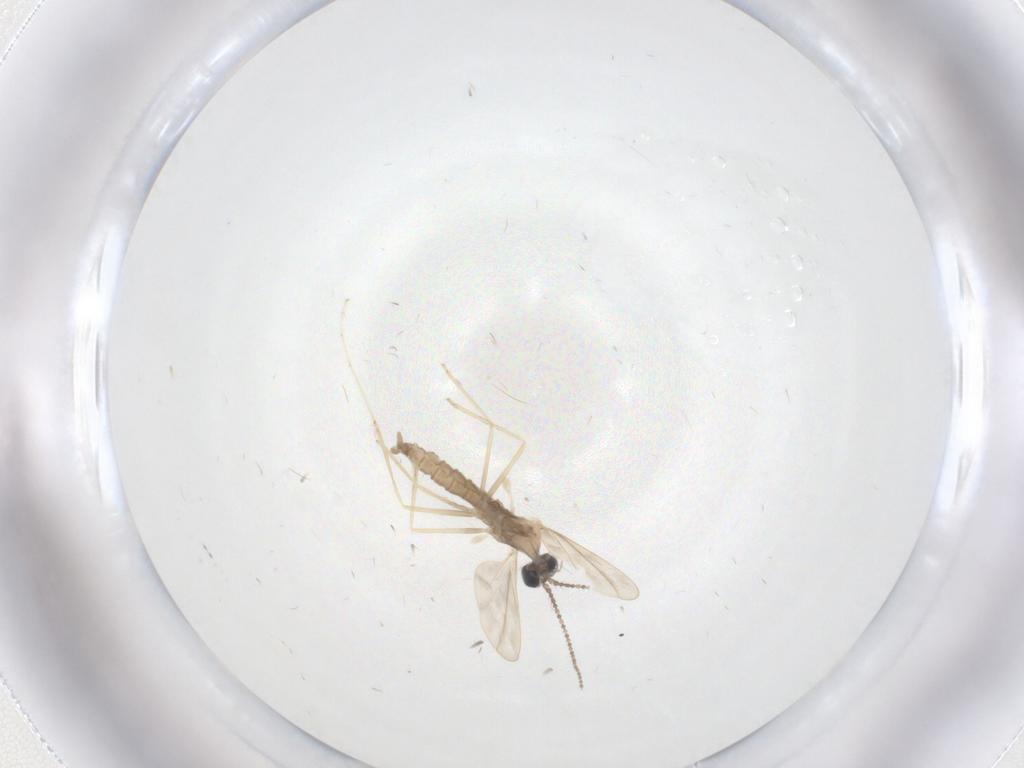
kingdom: Animalia
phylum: Arthropoda
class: Insecta
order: Diptera
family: Cecidomyiidae
